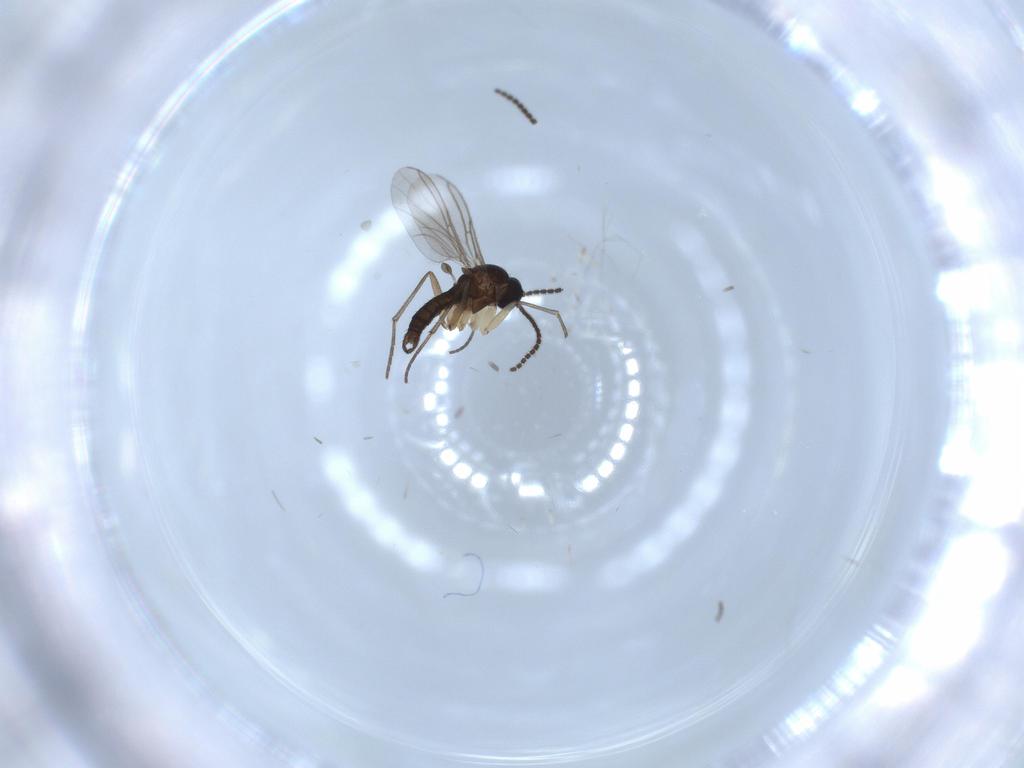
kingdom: Animalia
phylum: Arthropoda
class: Insecta
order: Diptera
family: Sciaridae
